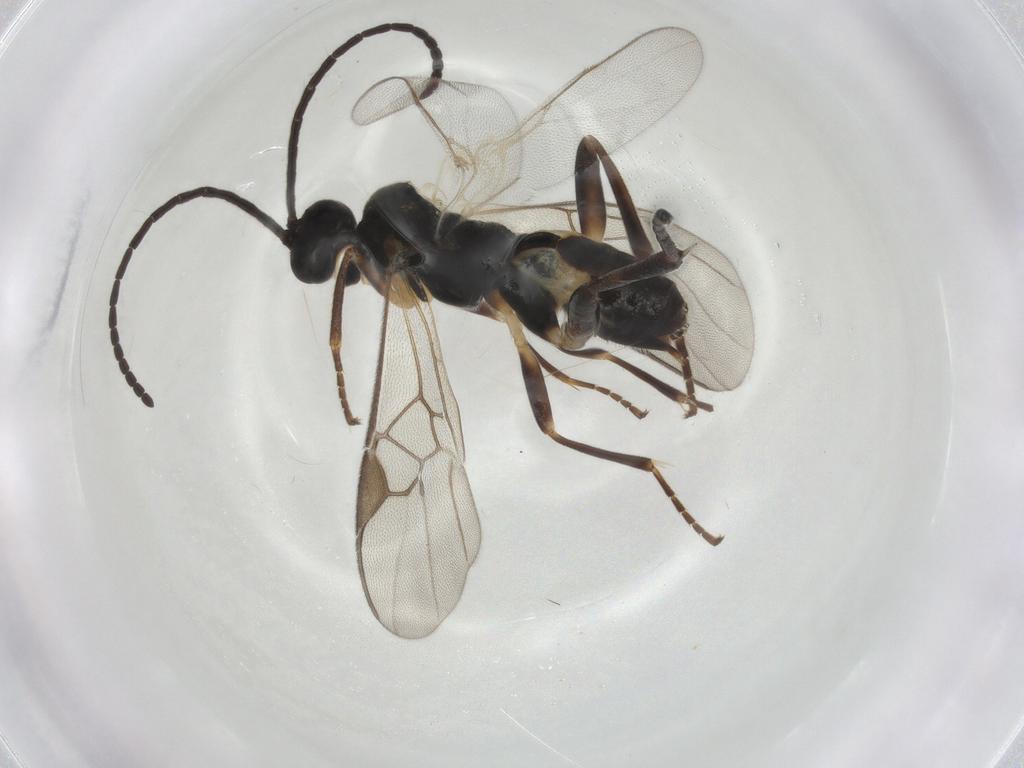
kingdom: Animalia
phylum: Arthropoda
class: Insecta
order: Hymenoptera
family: Braconidae
